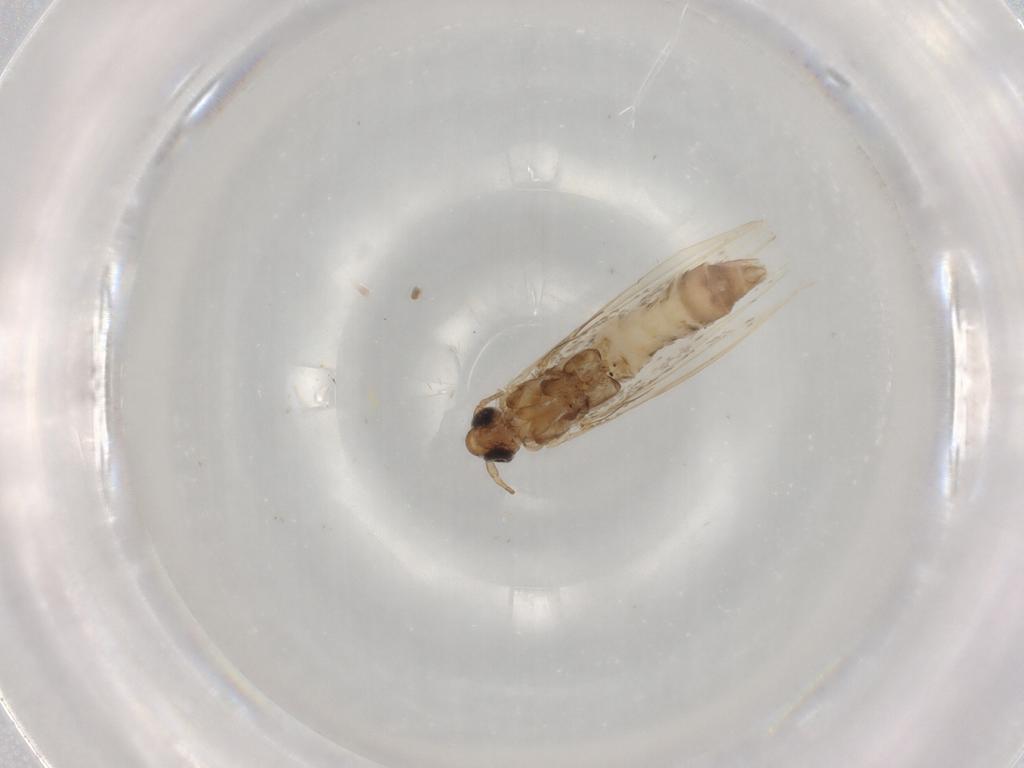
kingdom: Animalia
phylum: Arthropoda
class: Insecta
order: Lepidoptera
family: Gracillariidae
